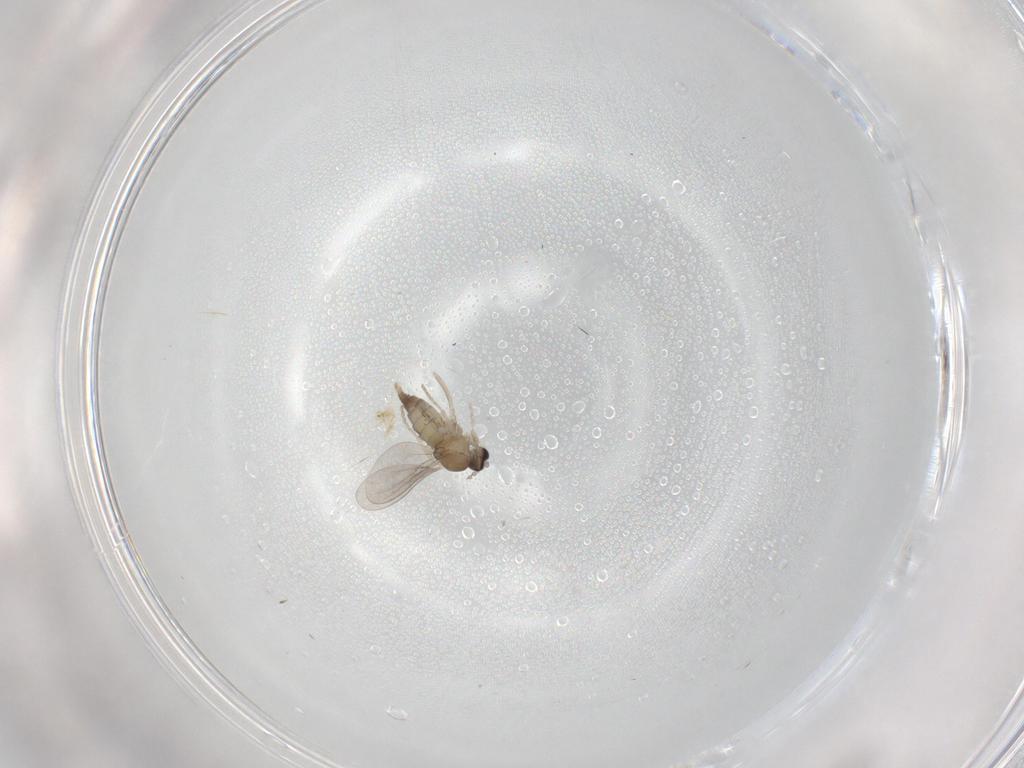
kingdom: Animalia
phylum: Arthropoda
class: Insecta
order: Diptera
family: Cecidomyiidae
